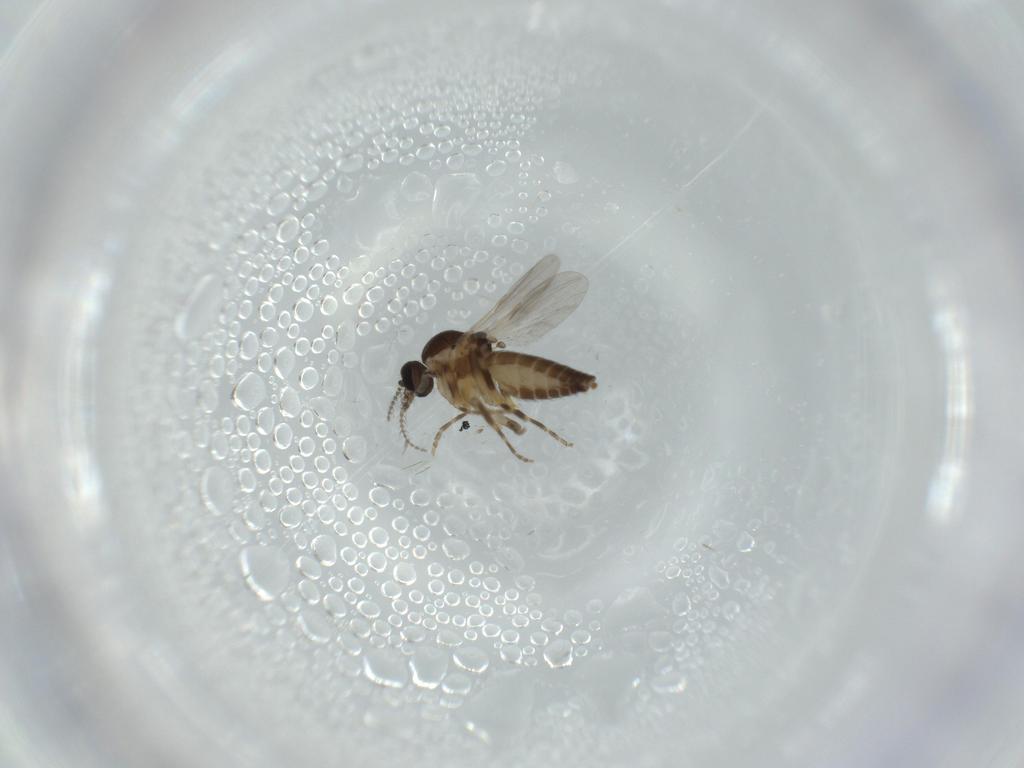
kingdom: Animalia
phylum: Arthropoda
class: Insecta
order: Diptera
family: Ceratopogonidae
